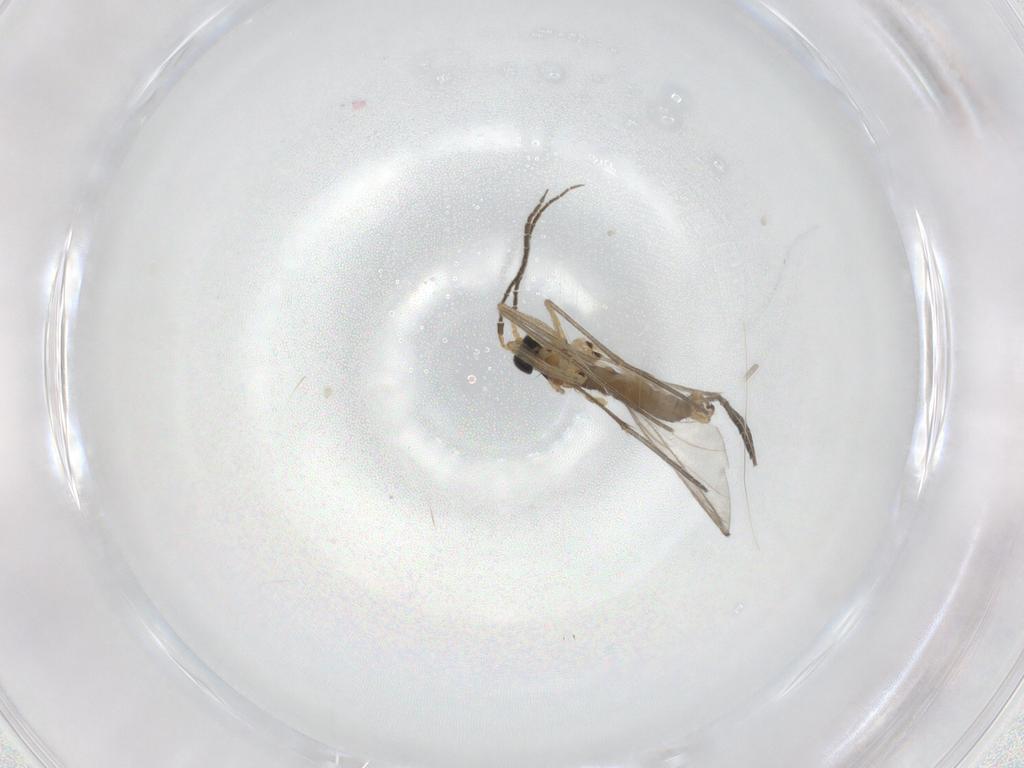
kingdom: Animalia
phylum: Arthropoda
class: Insecta
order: Diptera
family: Sciaridae
